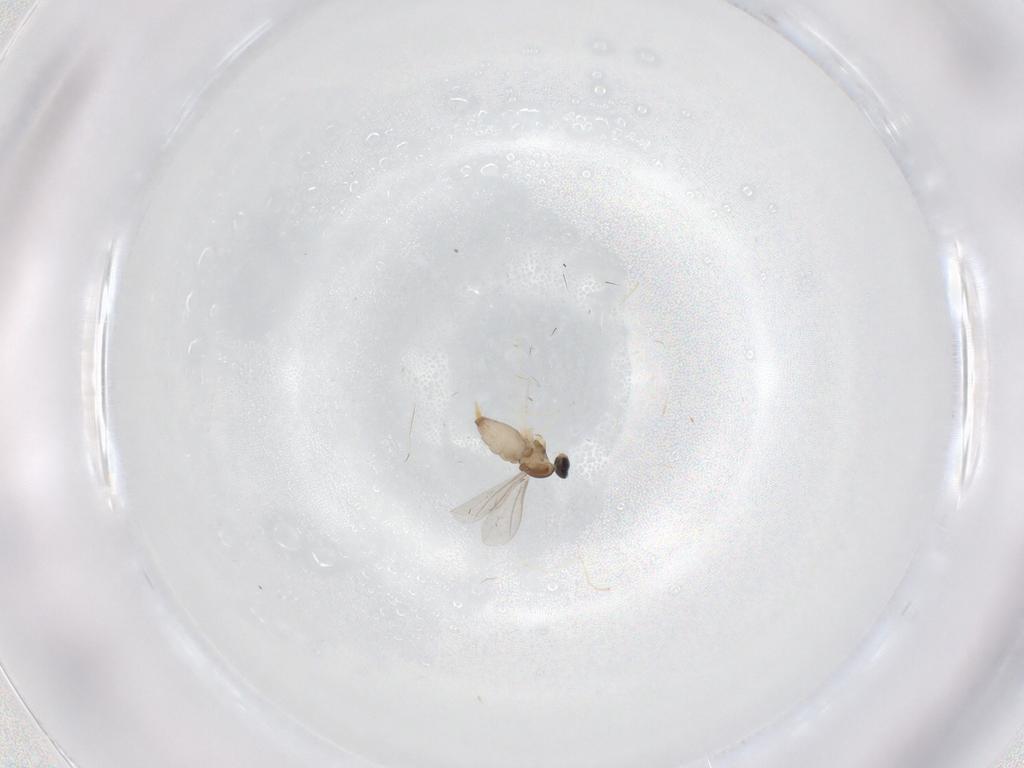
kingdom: Animalia
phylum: Arthropoda
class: Insecta
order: Diptera
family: Cecidomyiidae
